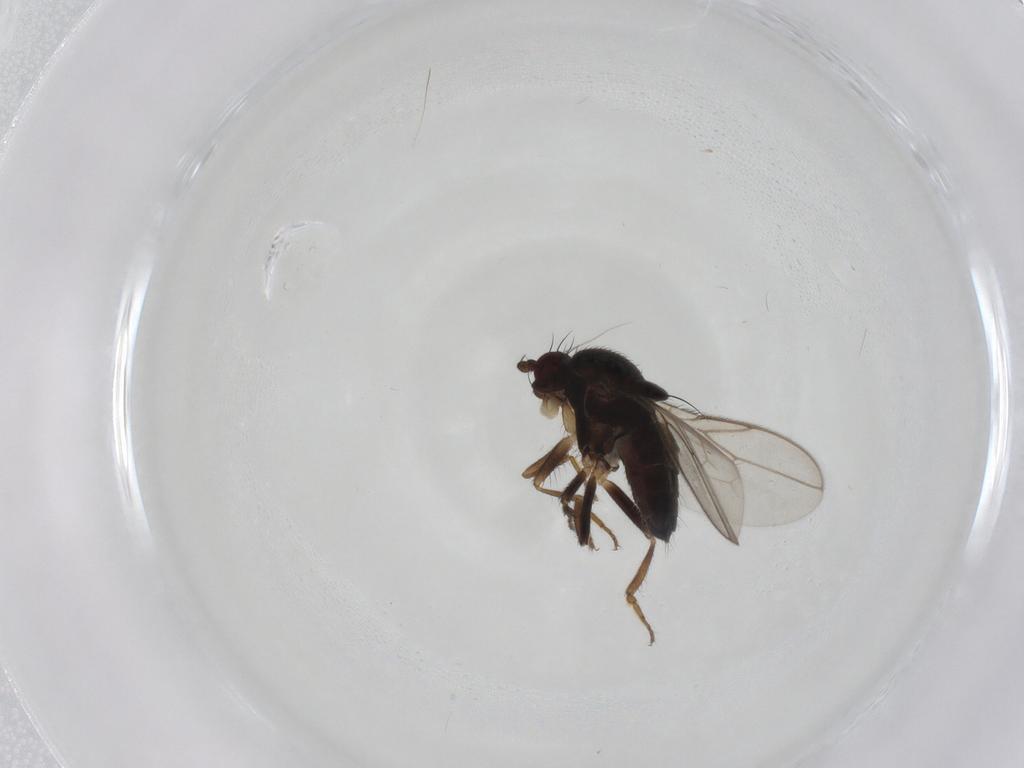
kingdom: Animalia
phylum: Arthropoda
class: Insecta
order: Diptera
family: Sphaeroceridae
